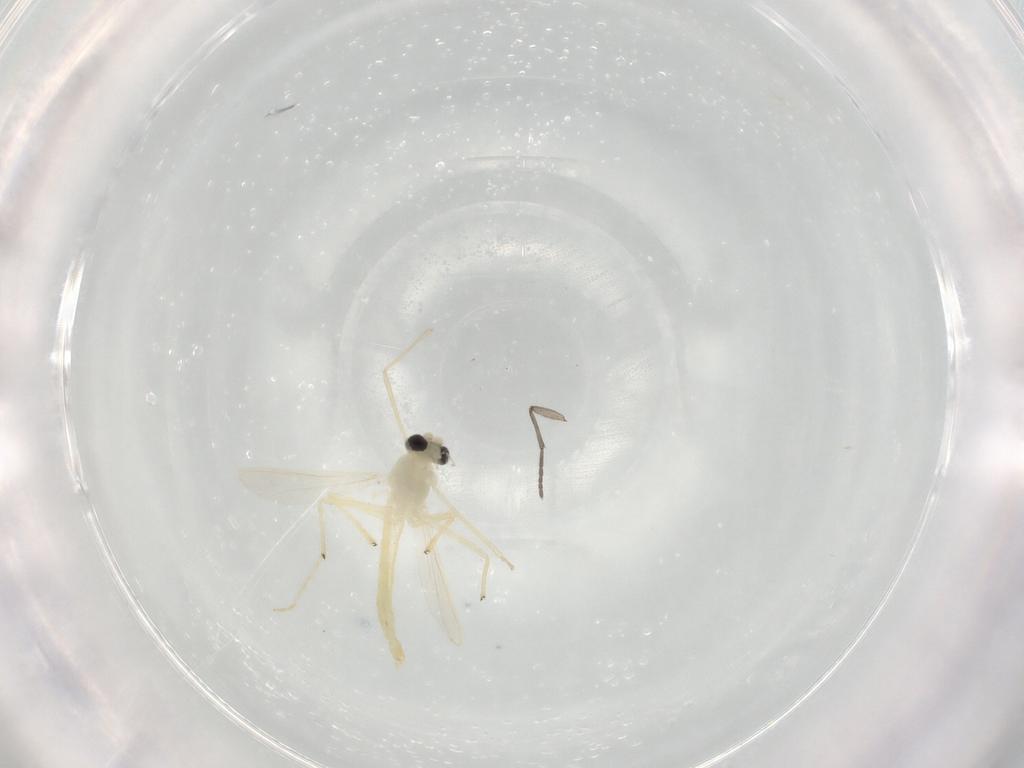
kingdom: Animalia
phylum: Arthropoda
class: Insecta
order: Diptera
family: Sciaridae
